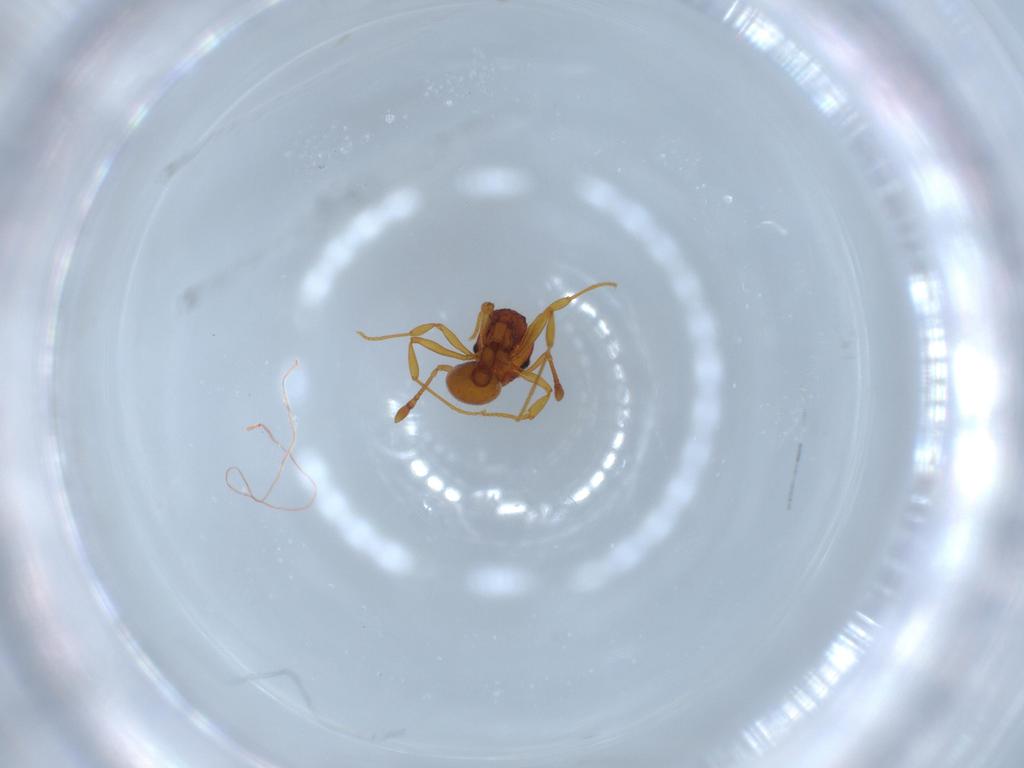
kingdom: Animalia
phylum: Arthropoda
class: Insecta
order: Hymenoptera
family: Formicidae
